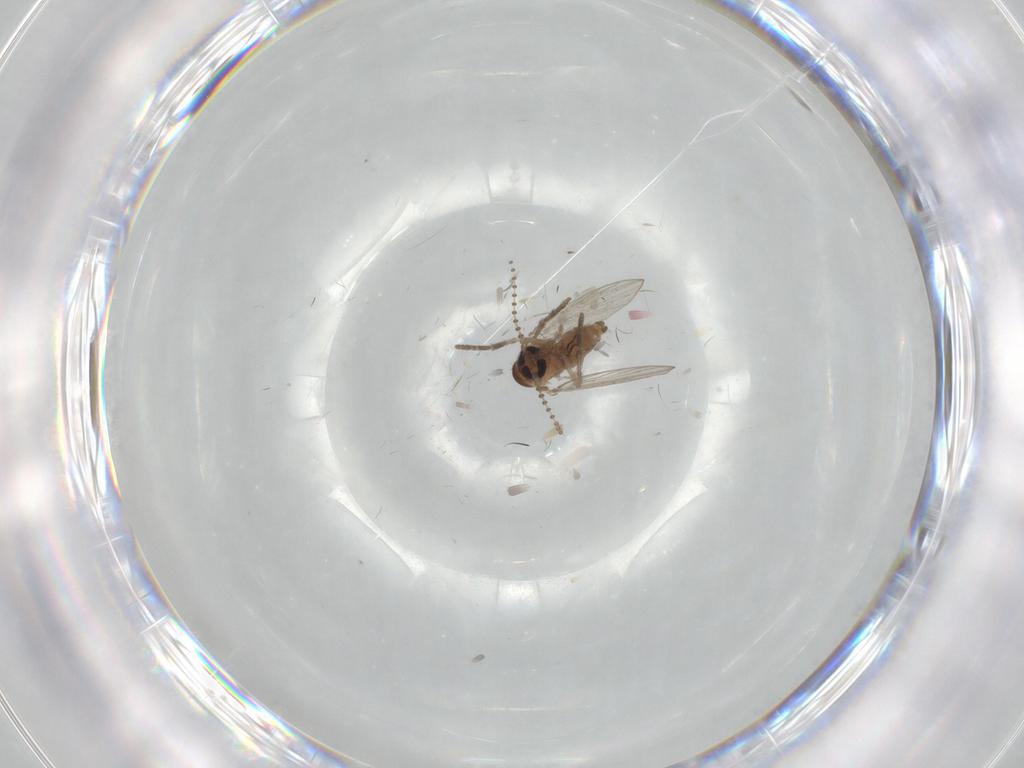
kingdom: Animalia
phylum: Arthropoda
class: Insecta
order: Diptera
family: Psychodidae
